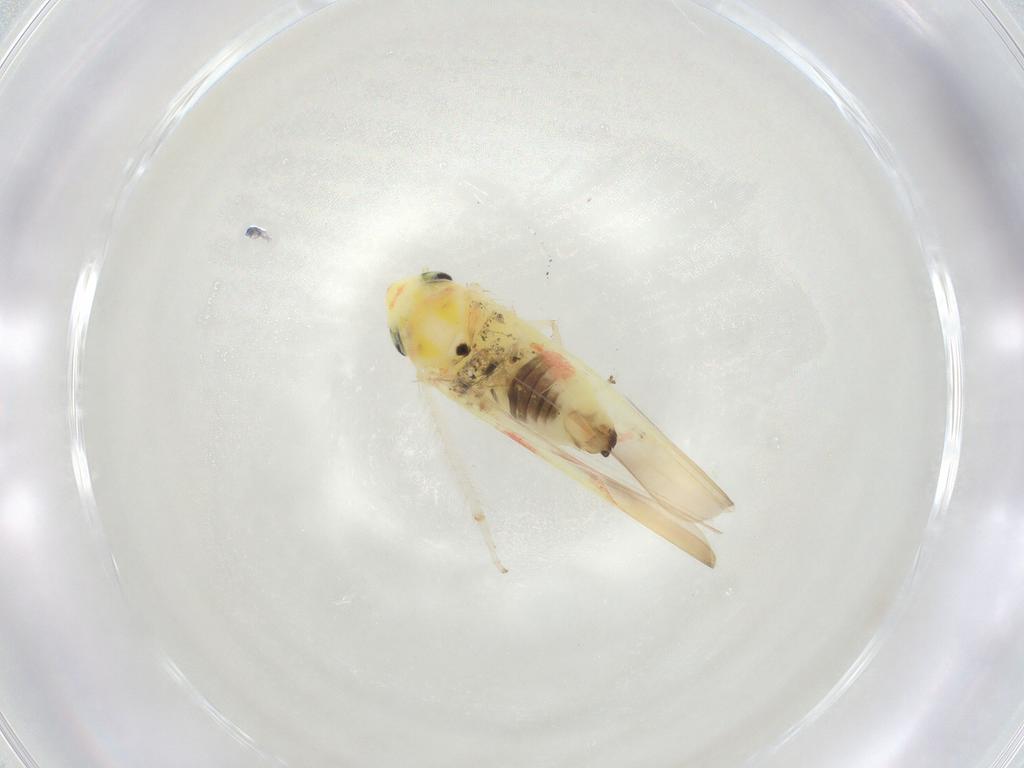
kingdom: Animalia
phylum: Arthropoda
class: Insecta
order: Hemiptera
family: Cicadellidae
